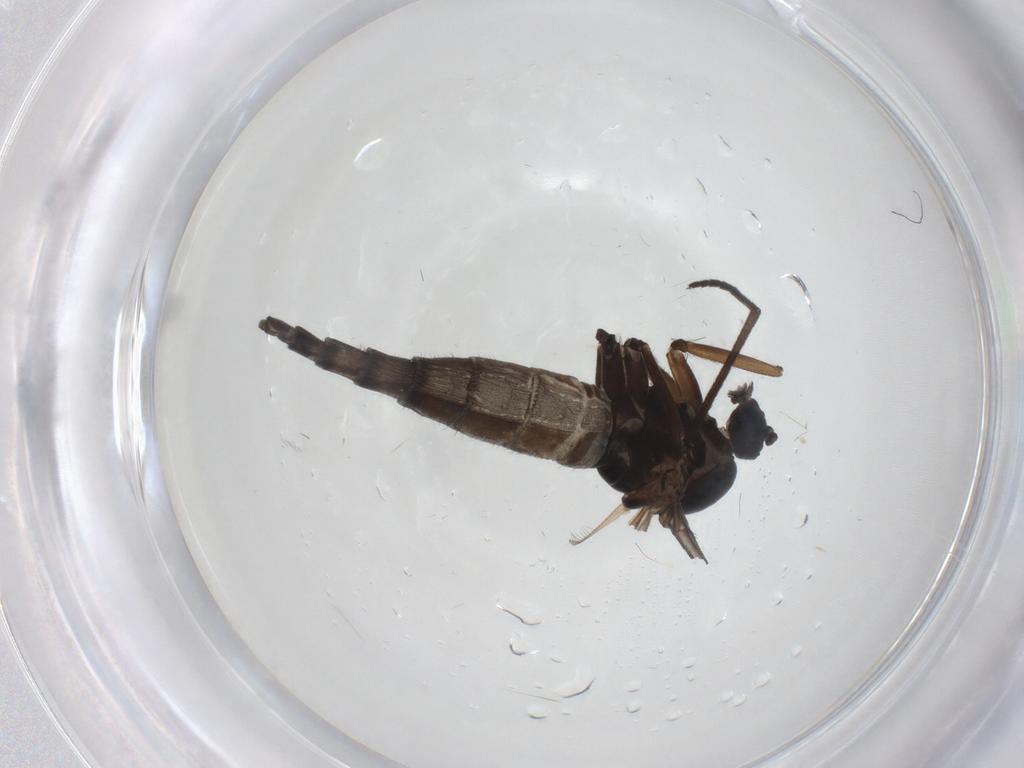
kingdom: Animalia
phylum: Arthropoda
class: Insecta
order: Diptera
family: Sciaridae
